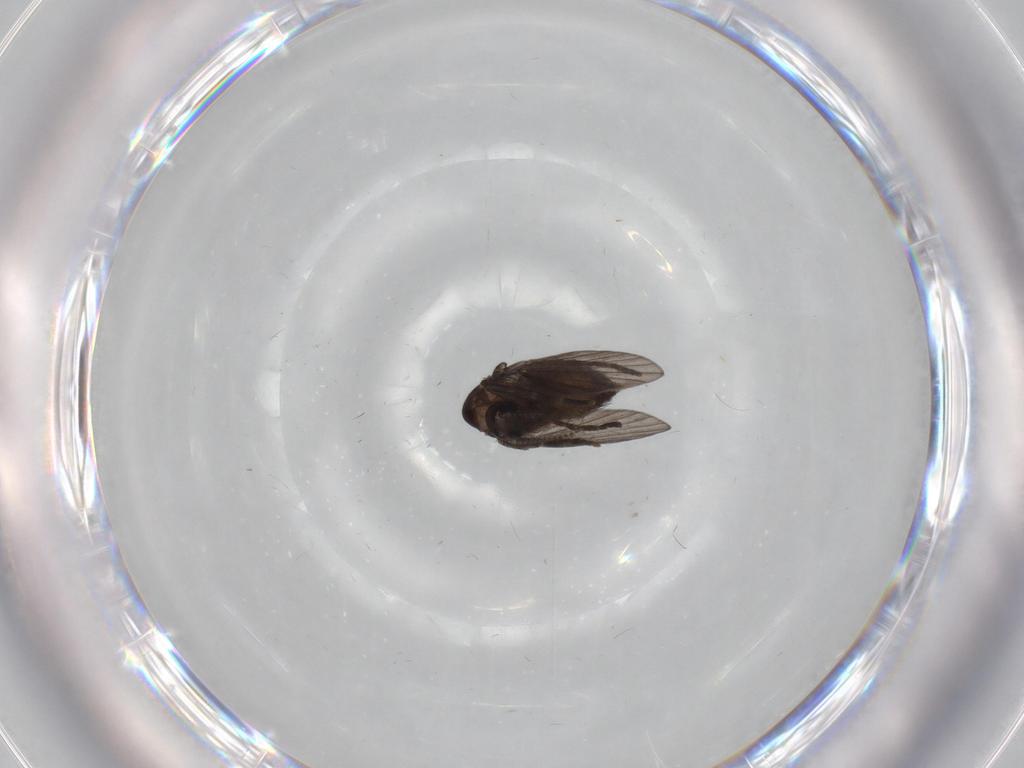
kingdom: Animalia
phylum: Arthropoda
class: Insecta
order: Diptera
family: Psychodidae
